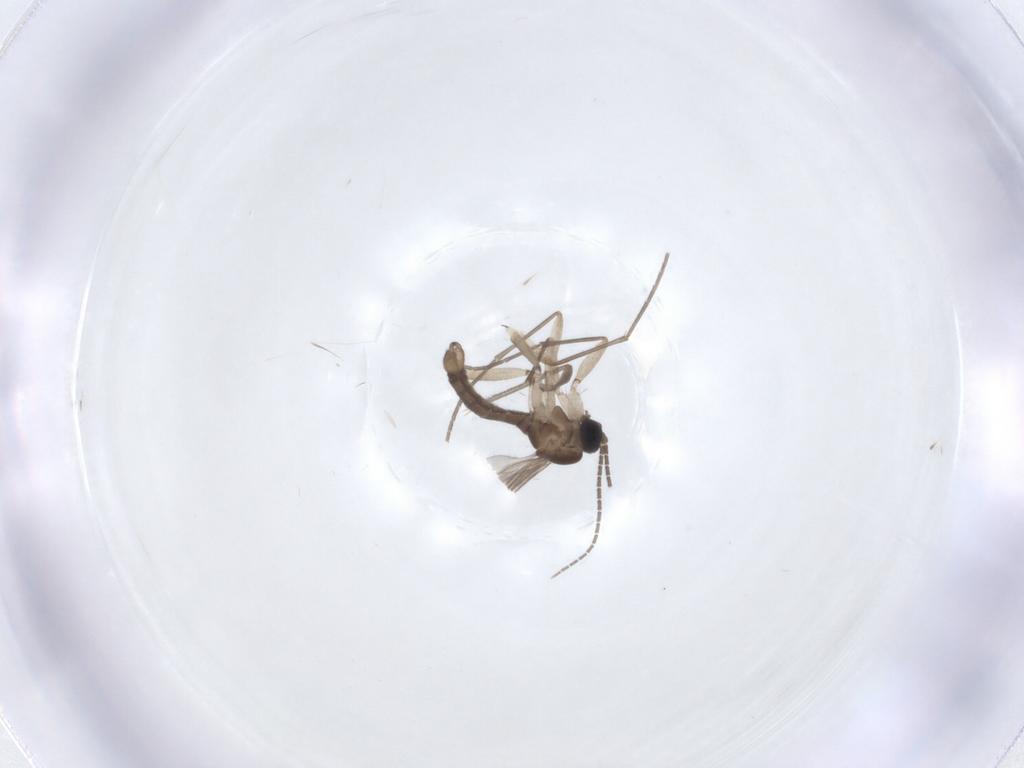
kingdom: Animalia
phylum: Arthropoda
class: Insecta
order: Diptera
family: Sciaridae
